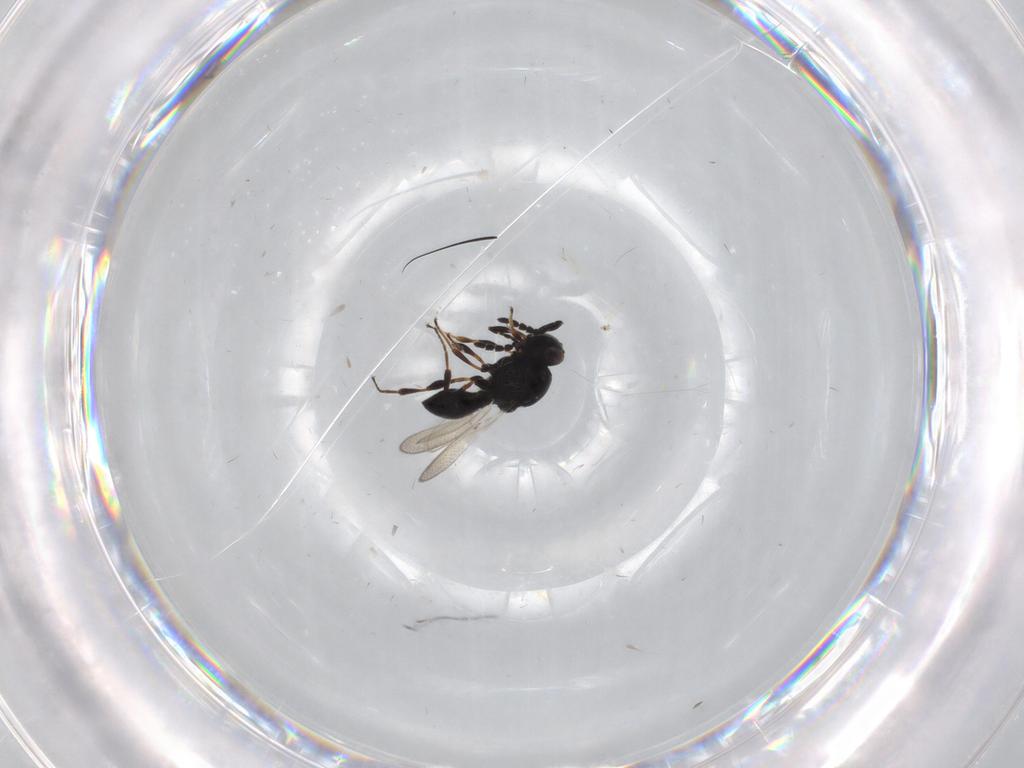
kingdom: Animalia
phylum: Arthropoda
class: Insecta
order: Hymenoptera
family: Platygastridae
